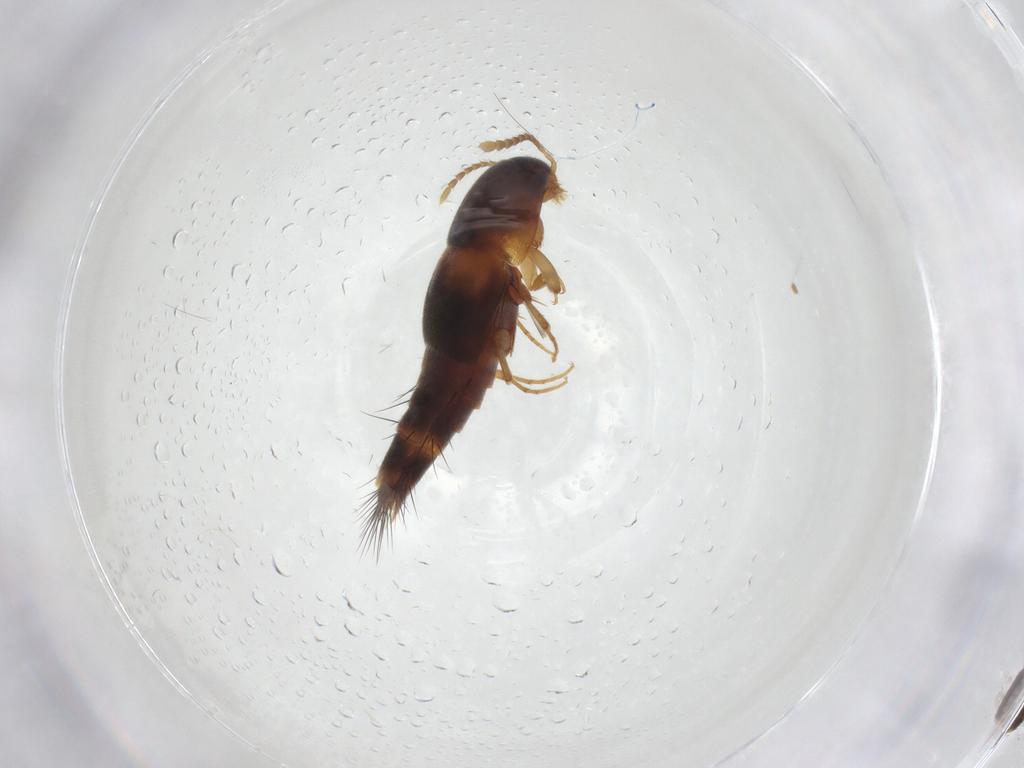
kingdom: Animalia
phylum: Arthropoda
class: Insecta
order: Coleoptera
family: Staphylinidae
